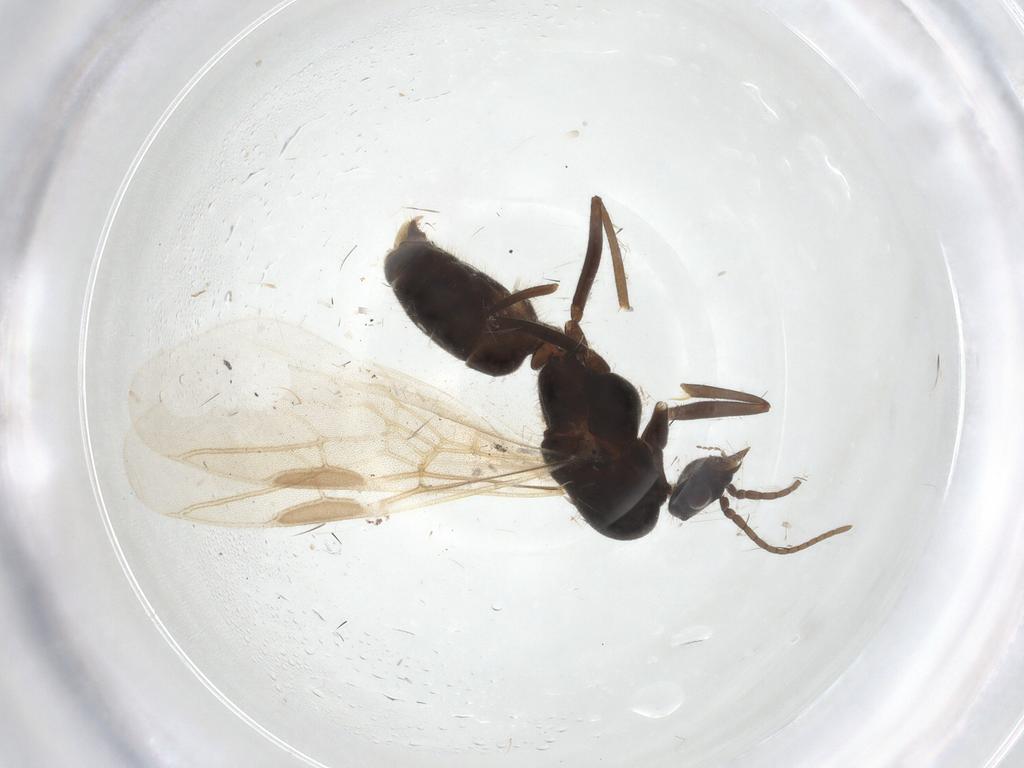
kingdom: Animalia
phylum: Arthropoda
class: Insecta
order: Hymenoptera
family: Formicidae
